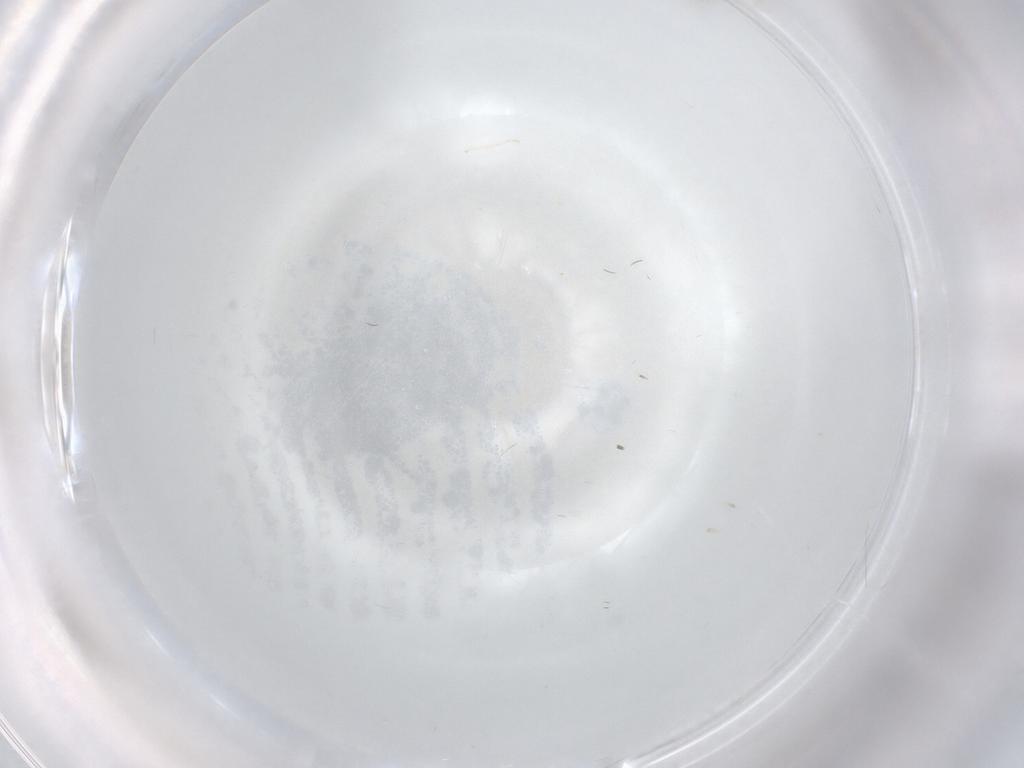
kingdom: Animalia
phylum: Arthropoda
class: Insecta
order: Diptera
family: Cecidomyiidae
